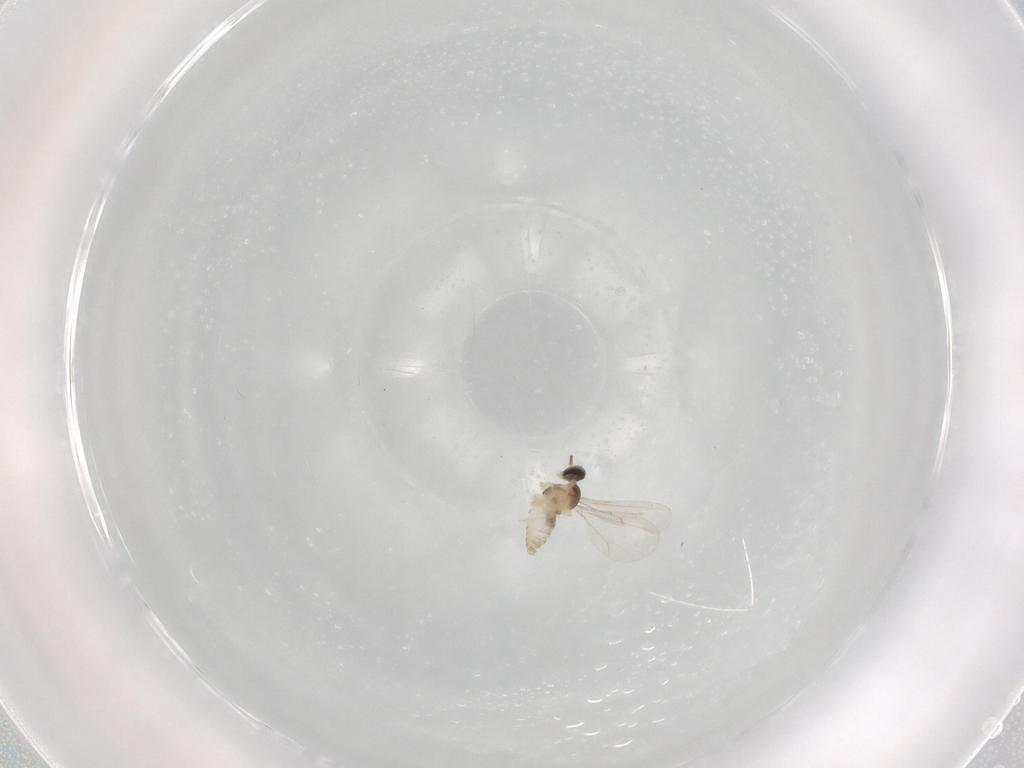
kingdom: Animalia
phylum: Arthropoda
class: Insecta
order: Diptera
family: Cecidomyiidae
